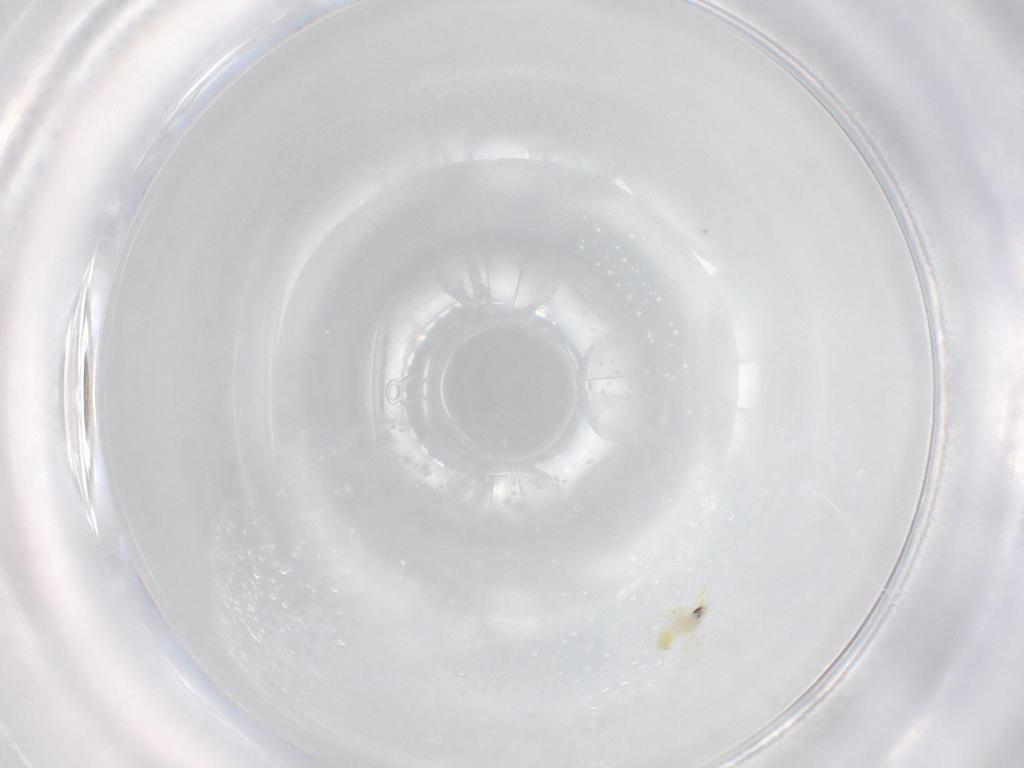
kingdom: Animalia
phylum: Arthropoda
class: Insecta
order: Hemiptera
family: Aleyrodidae
